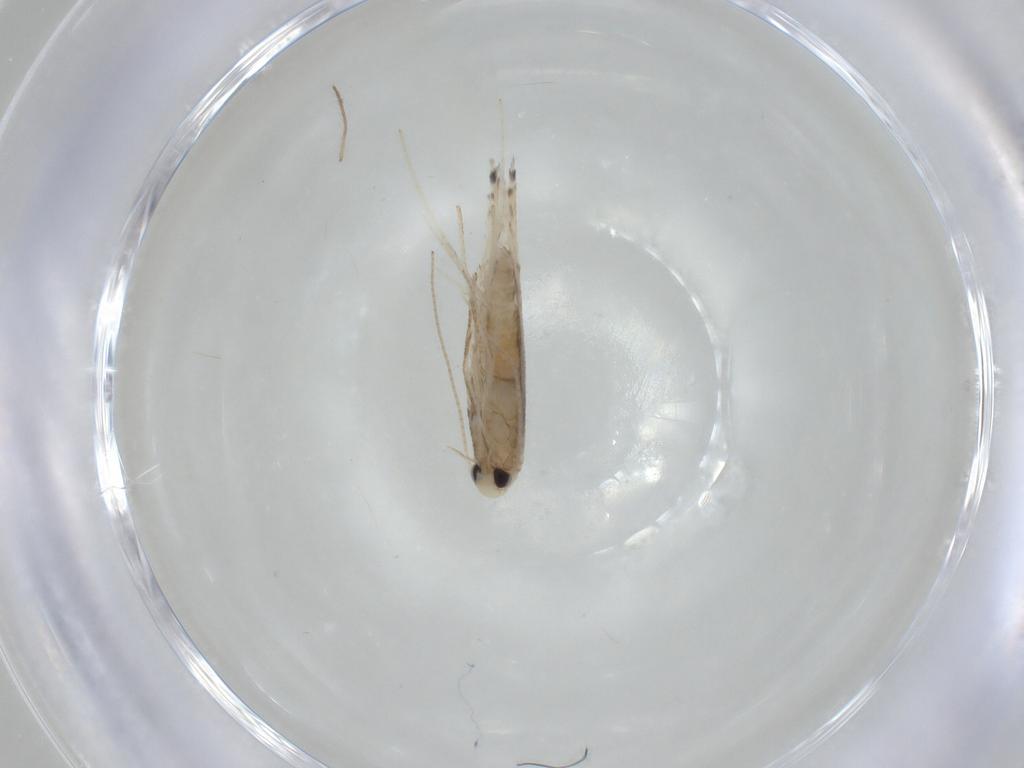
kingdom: Animalia
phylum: Arthropoda
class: Insecta
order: Lepidoptera
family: Gracillariidae
